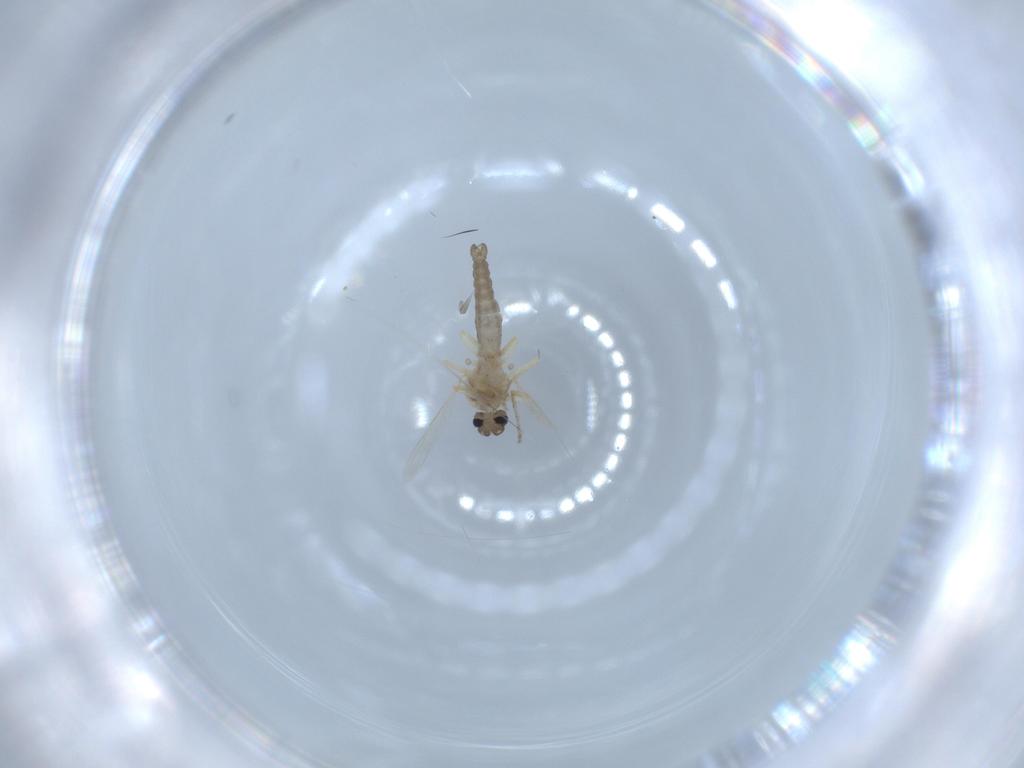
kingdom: Animalia
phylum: Arthropoda
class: Insecta
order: Diptera
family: Ceratopogonidae
